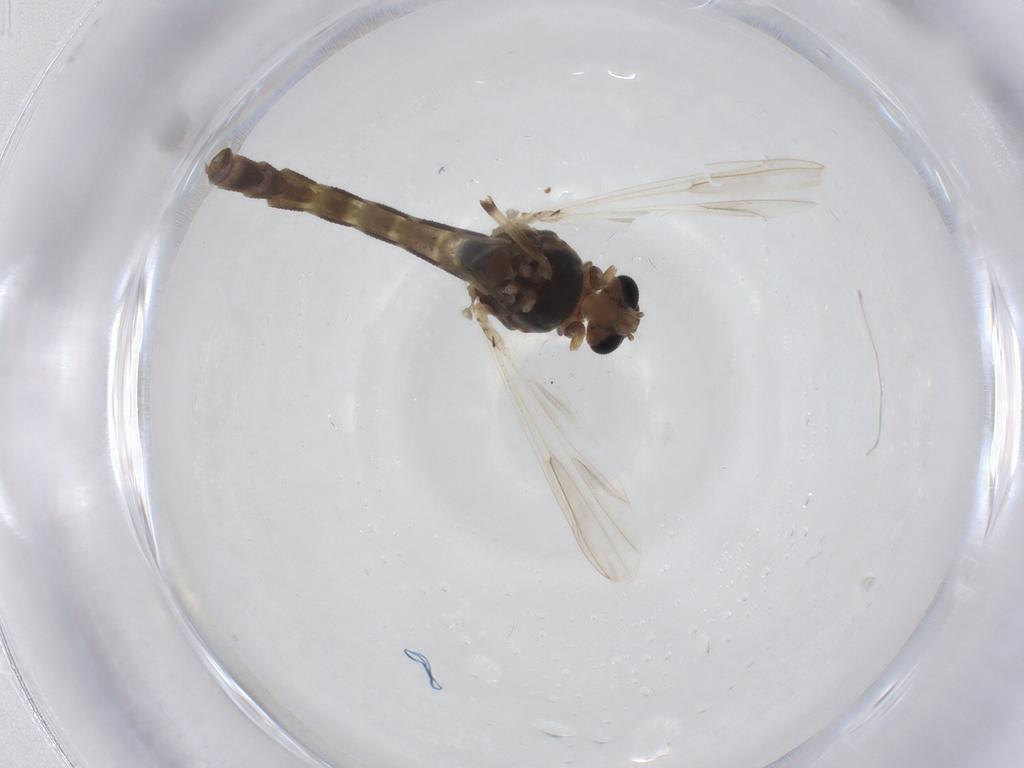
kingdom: Animalia
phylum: Arthropoda
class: Insecta
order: Diptera
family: Chironomidae
